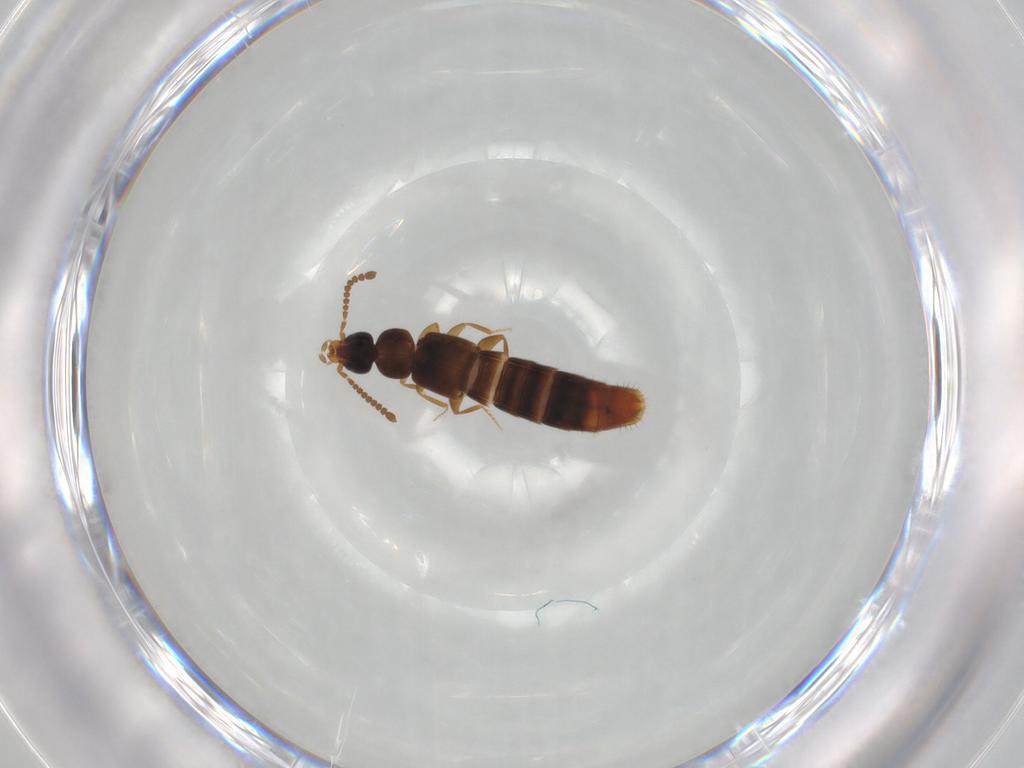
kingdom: Animalia
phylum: Arthropoda
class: Insecta
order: Coleoptera
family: Staphylinidae
